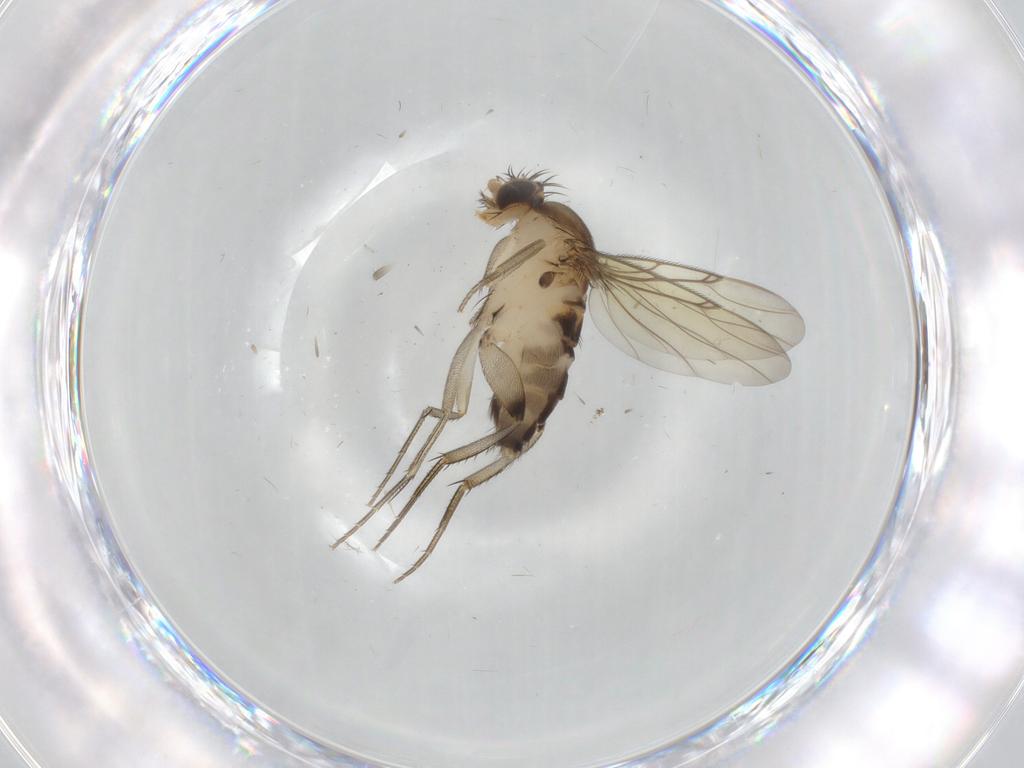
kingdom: Animalia
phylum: Arthropoda
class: Insecta
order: Diptera
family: Phoridae
